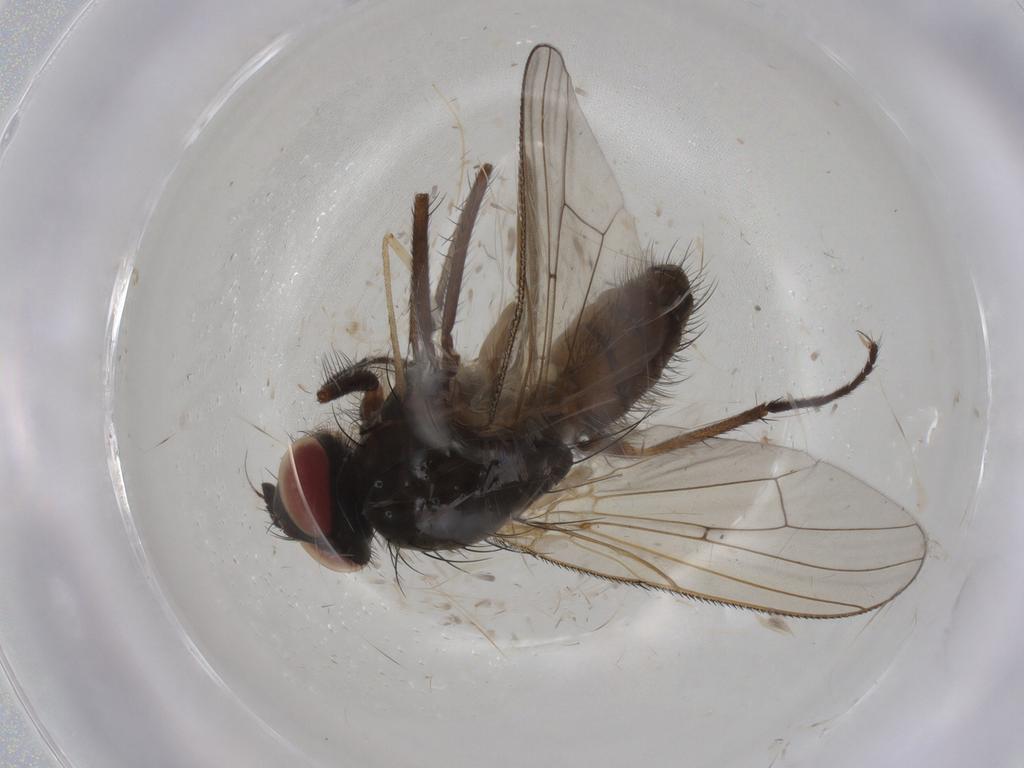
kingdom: Animalia
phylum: Arthropoda
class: Insecta
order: Diptera
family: Anthomyiidae
